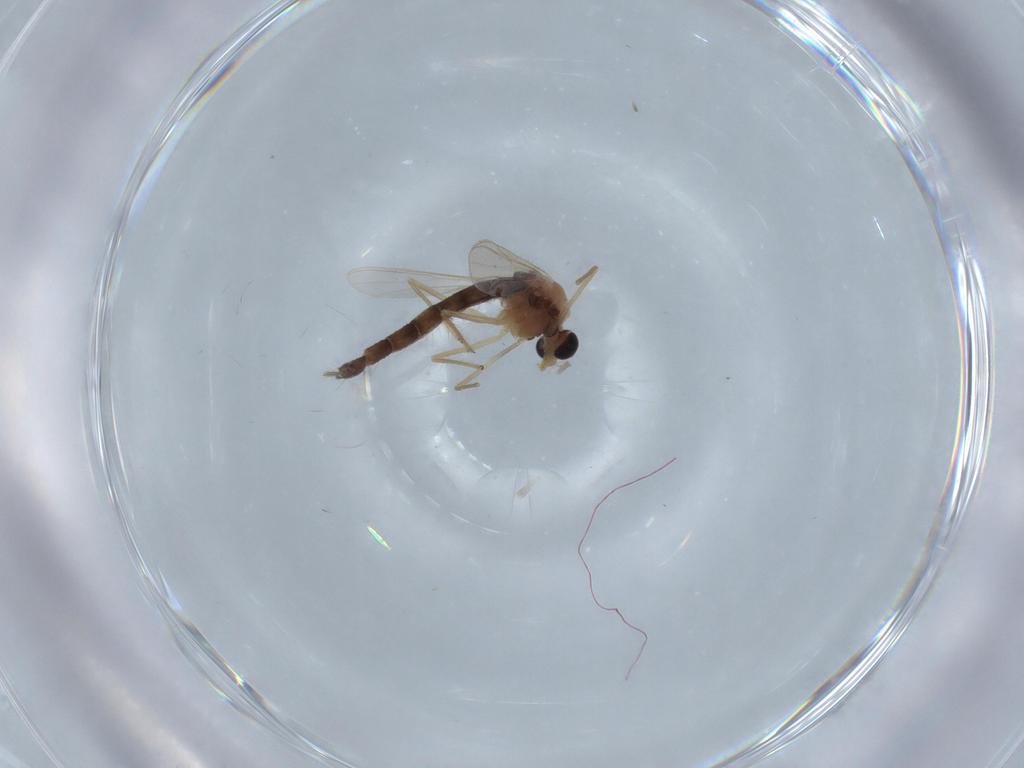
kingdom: Animalia
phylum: Arthropoda
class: Insecta
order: Diptera
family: Chironomidae
